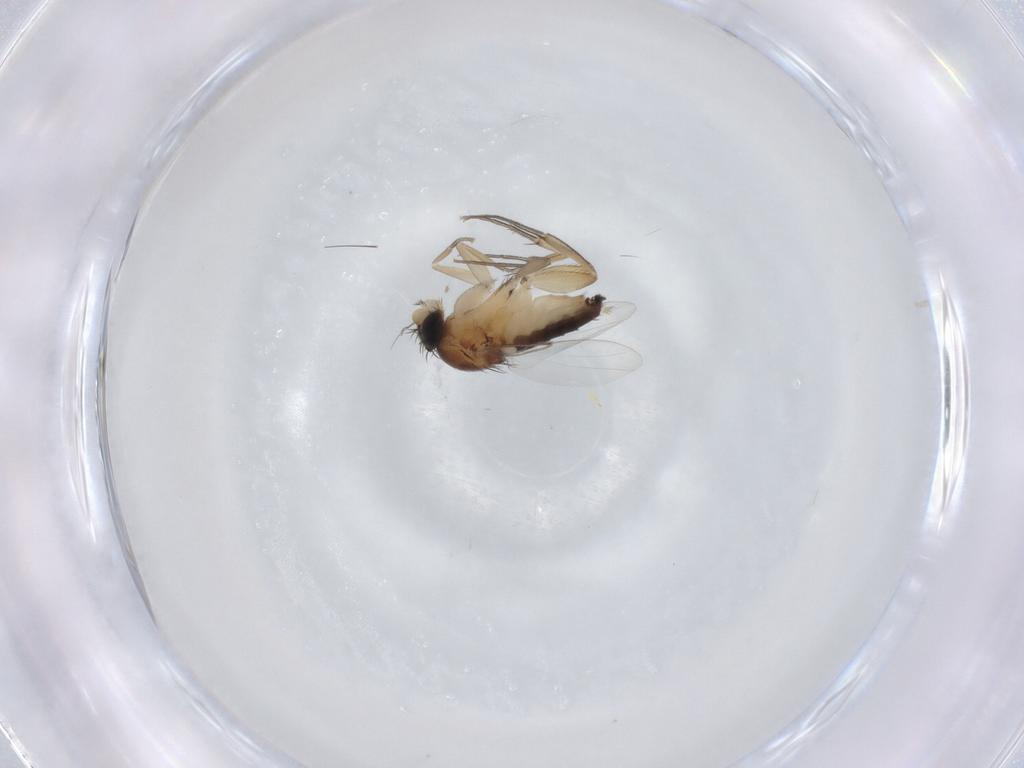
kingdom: Animalia
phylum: Arthropoda
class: Insecta
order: Diptera
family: Phoridae
